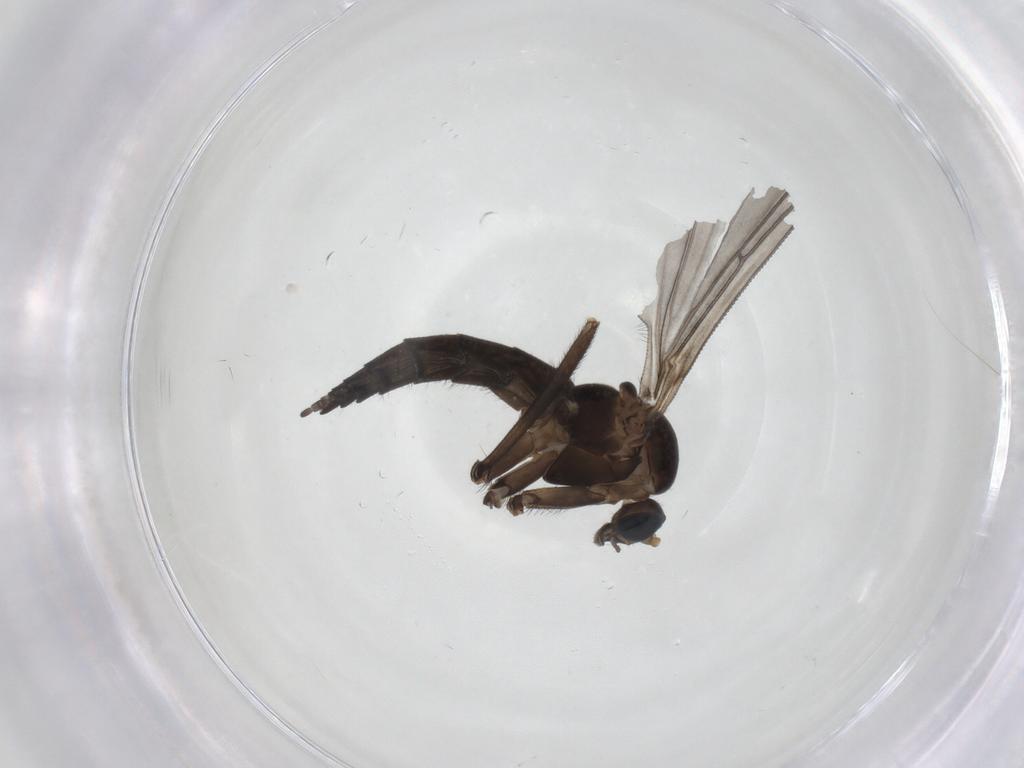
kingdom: Animalia
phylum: Arthropoda
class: Insecta
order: Diptera
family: Sciaridae
